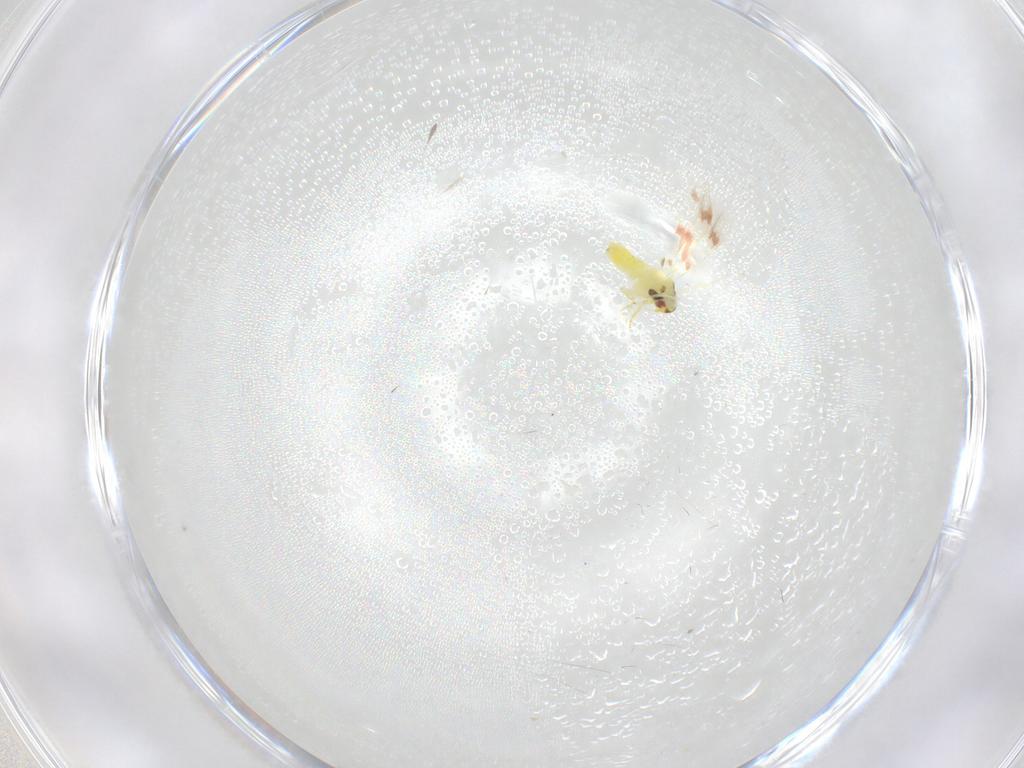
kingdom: Animalia
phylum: Arthropoda
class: Insecta
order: Hemiptera
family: Aleyrodidae
